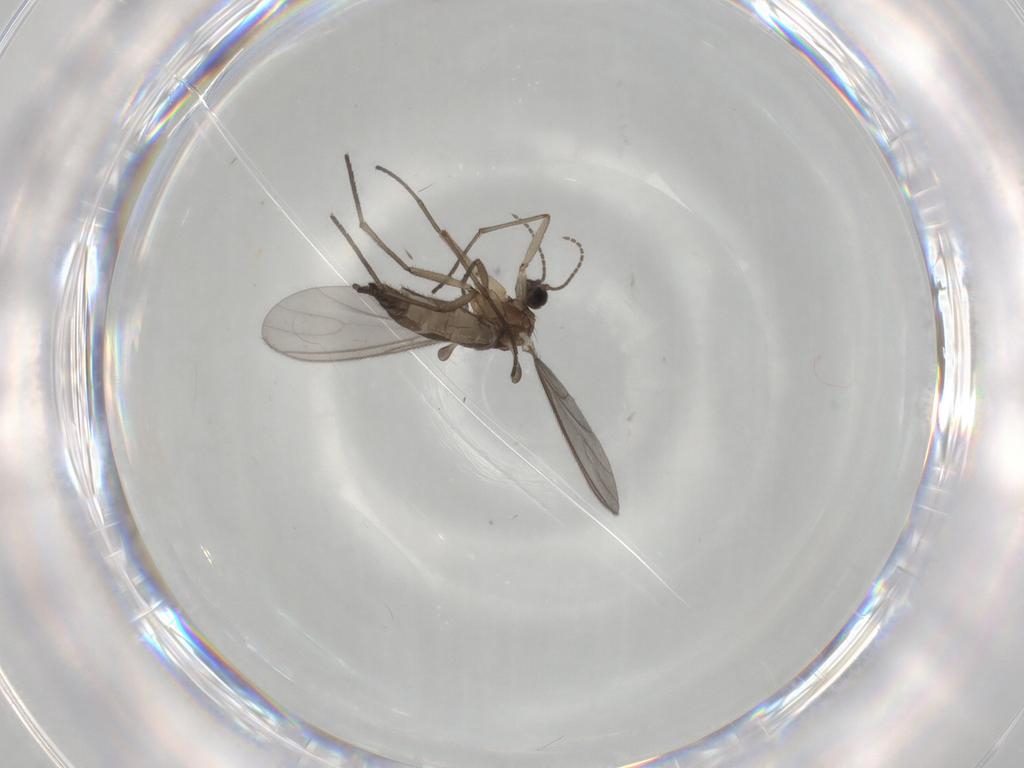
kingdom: Animalia
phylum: Arthropoda
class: Insecta
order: Diptera
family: Sciaridae
